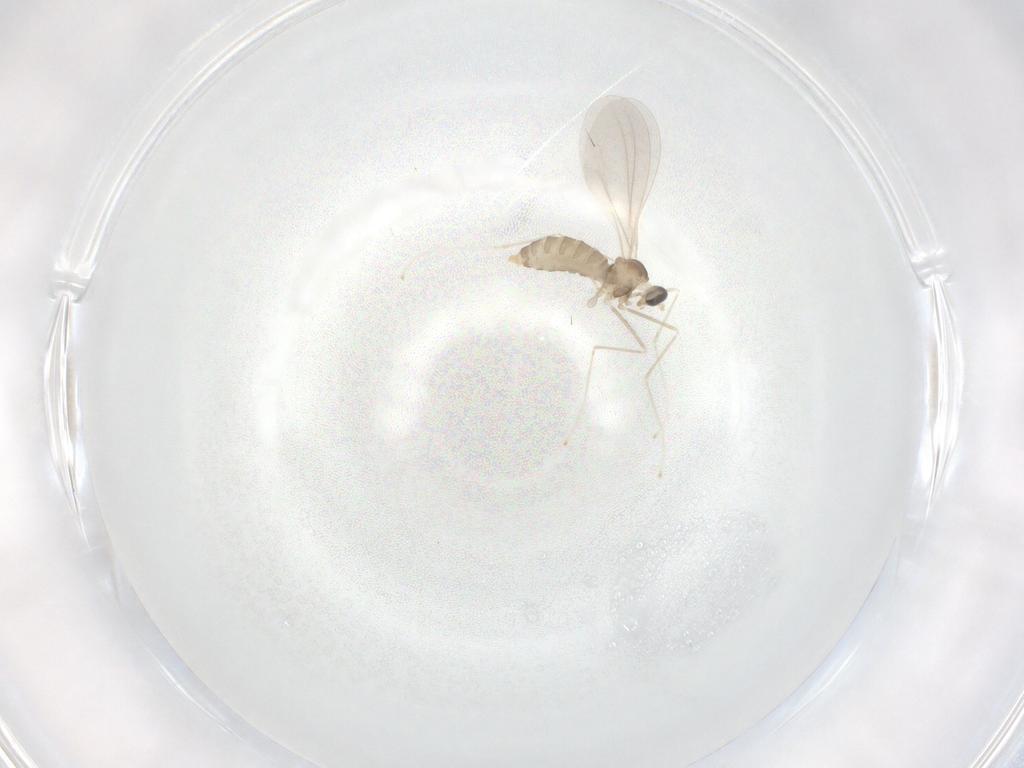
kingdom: Animalia
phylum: Arthropoda
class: Insecta
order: Diptera
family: Cecidomyiidae
